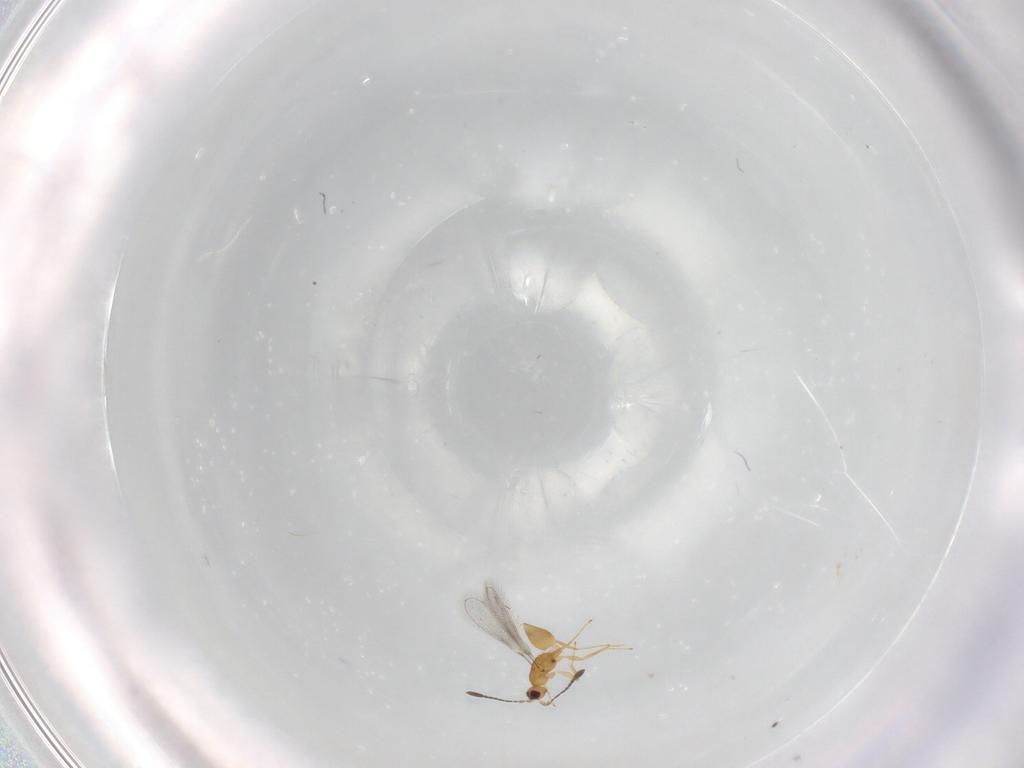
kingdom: Animalia
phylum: Arthropoda
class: Insecta
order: Hymenoptera
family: Mymaridae
